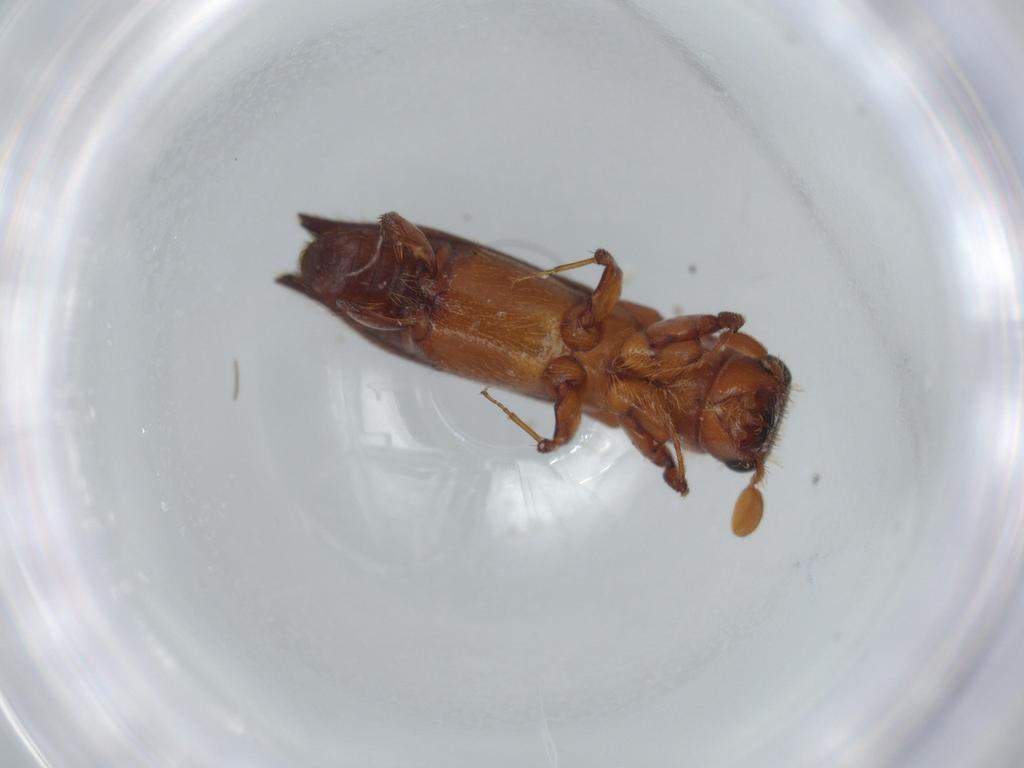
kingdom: Animalia
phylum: Arthropoda
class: Insecta
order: Coleoptera
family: Curculionidae
